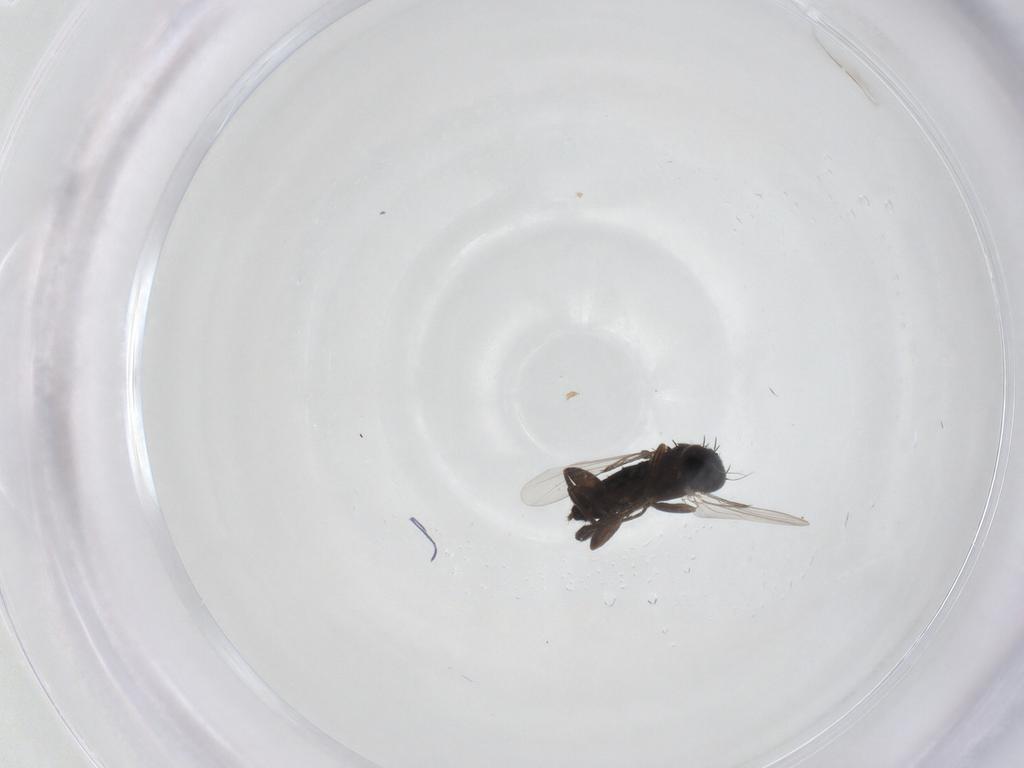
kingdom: Animalia
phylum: Arthropoda
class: Insecta
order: Diptera
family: Phoridae
